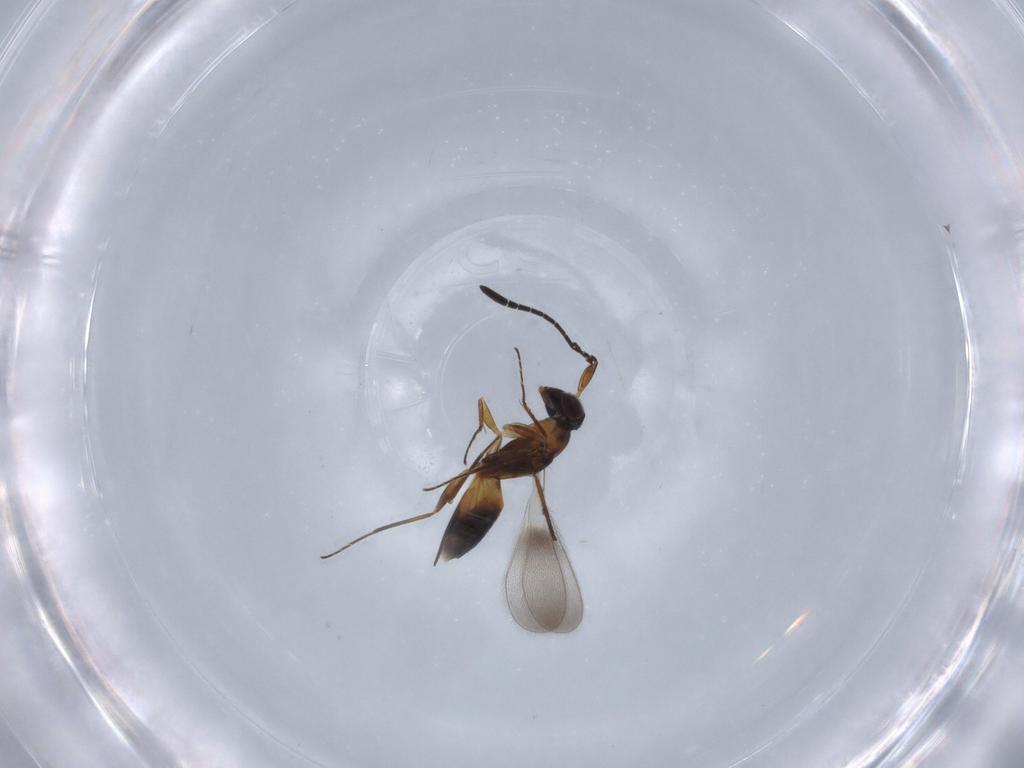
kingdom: Animalia
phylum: Arthropoda
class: Insecta
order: Hymenoptera
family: Mymaridae
